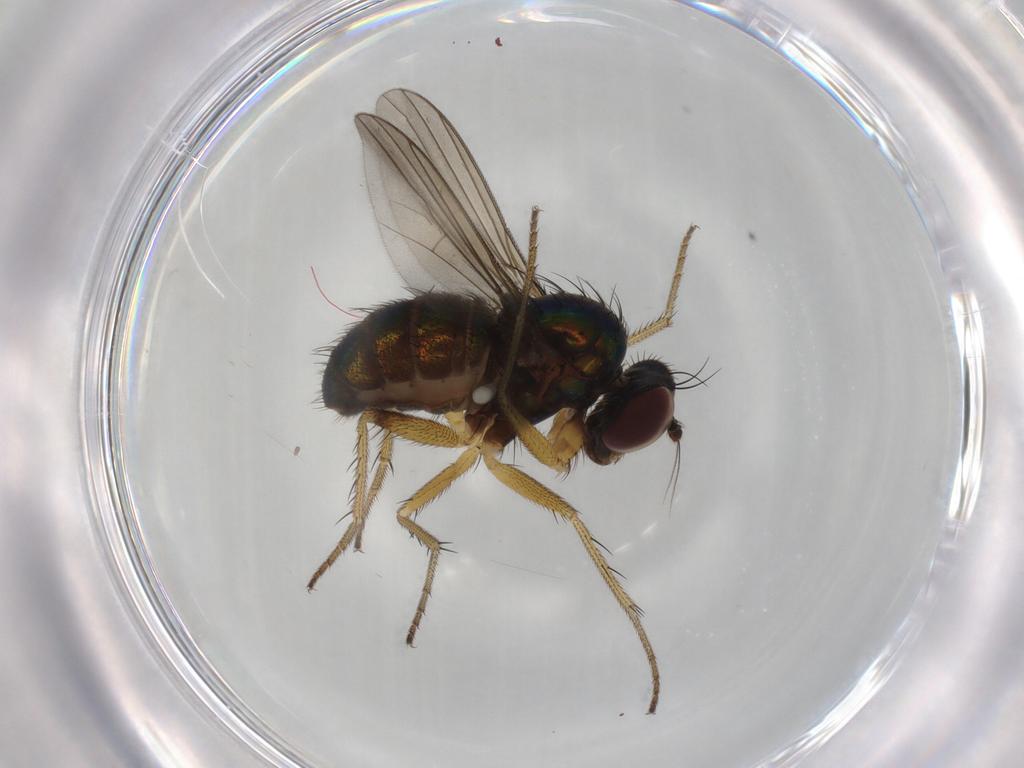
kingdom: Animalia
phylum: Arthropoda
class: Insecta
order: Diptera
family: Dolichopodidae
